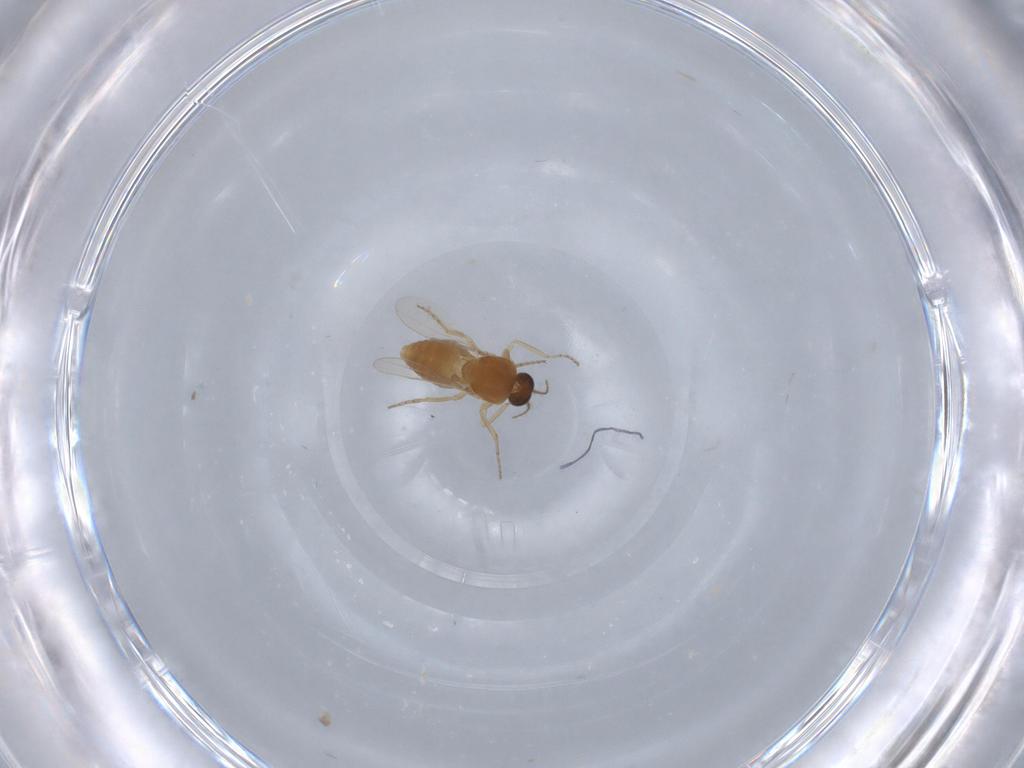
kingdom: Animalia
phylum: Arthropoda
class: Insecta
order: Diptera
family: Ceratopogonidae
